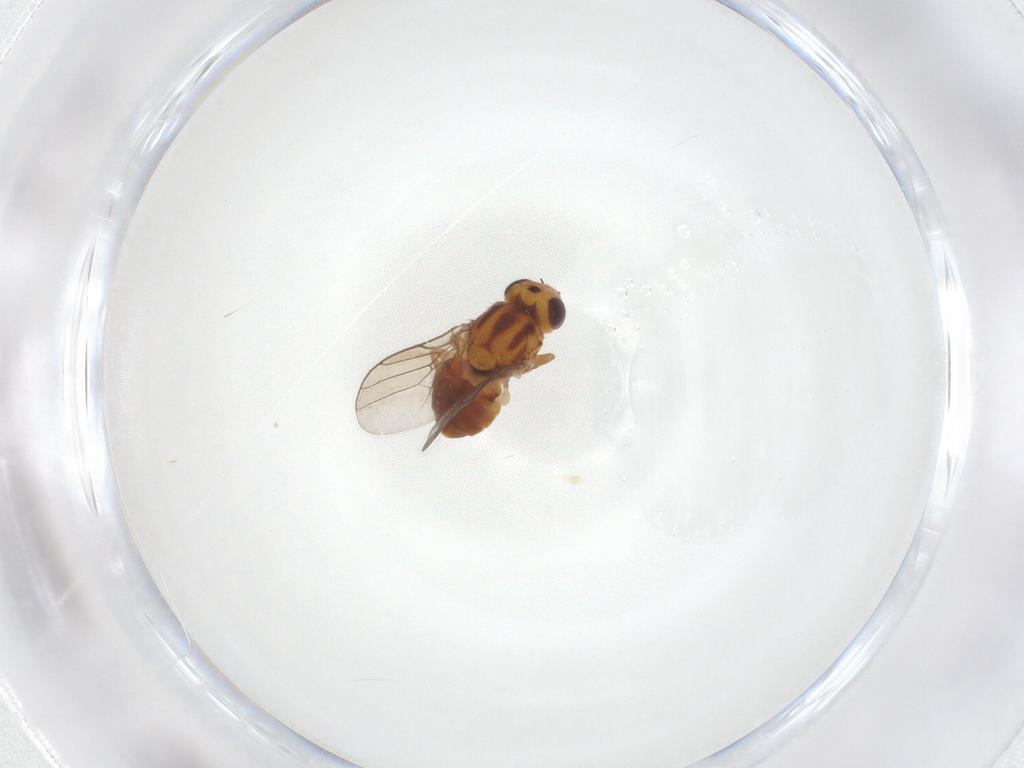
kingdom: Animalia
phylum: Arthropoda
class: Insecta
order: Diptera
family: Chloropidae
